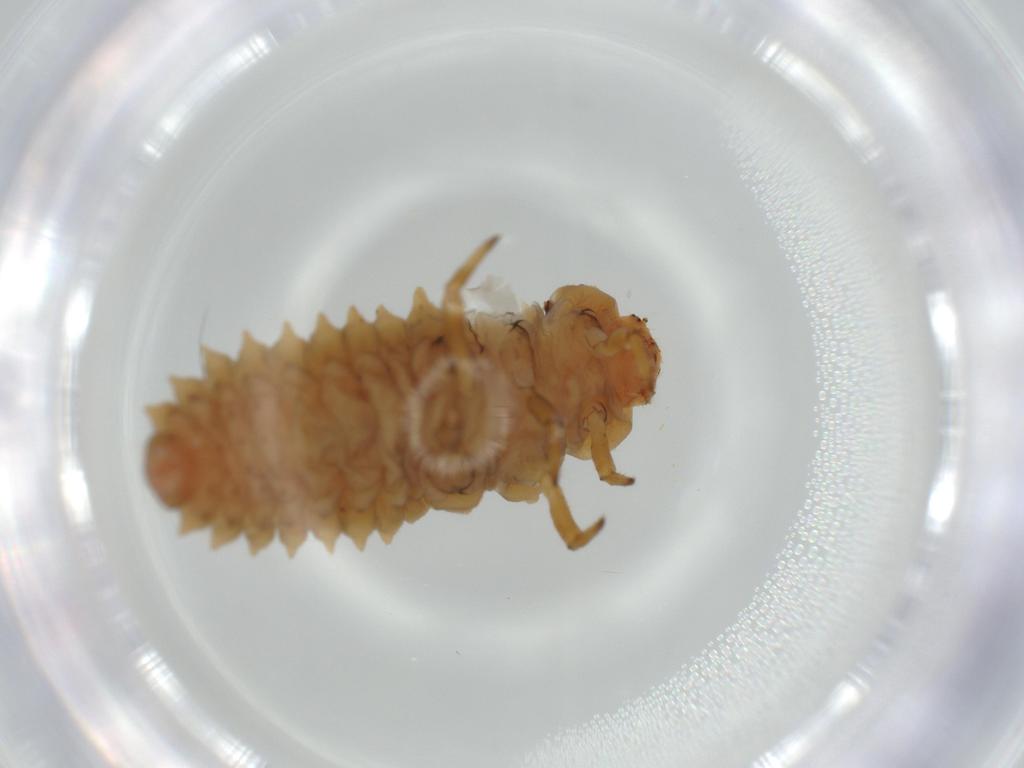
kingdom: Animalia
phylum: Arthropoda
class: Insecta
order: Coleoptera
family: Coccinellidae
